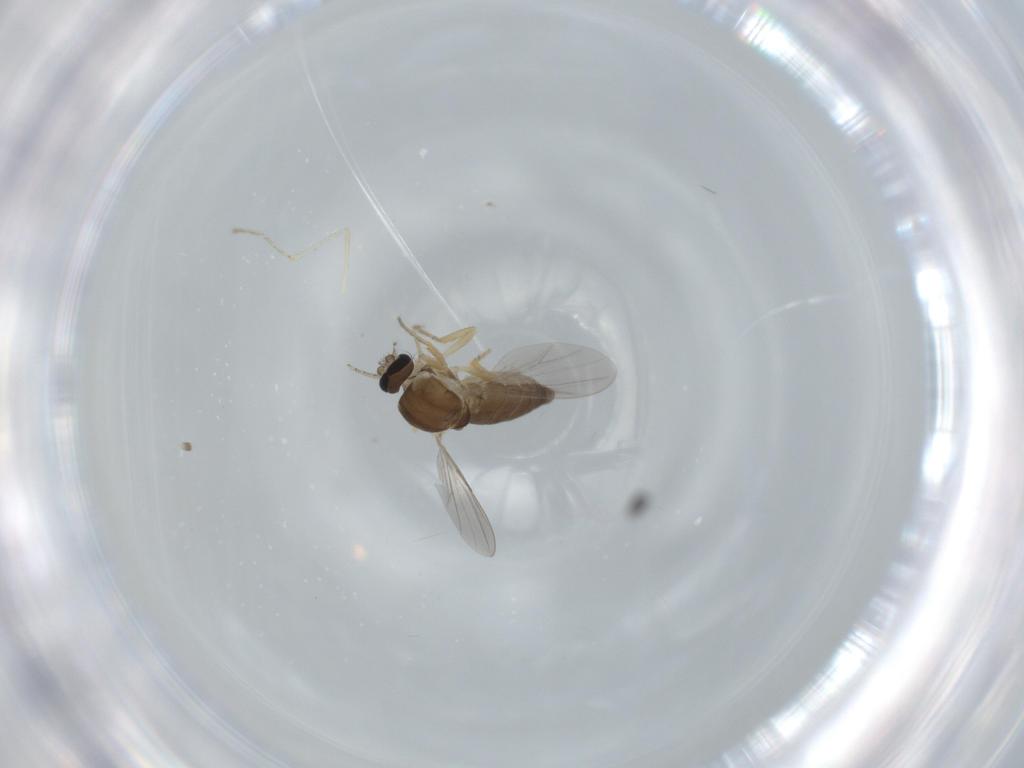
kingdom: Animalia
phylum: Arthropoda
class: Insecta
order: Diptera
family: Ceratopogonidae
